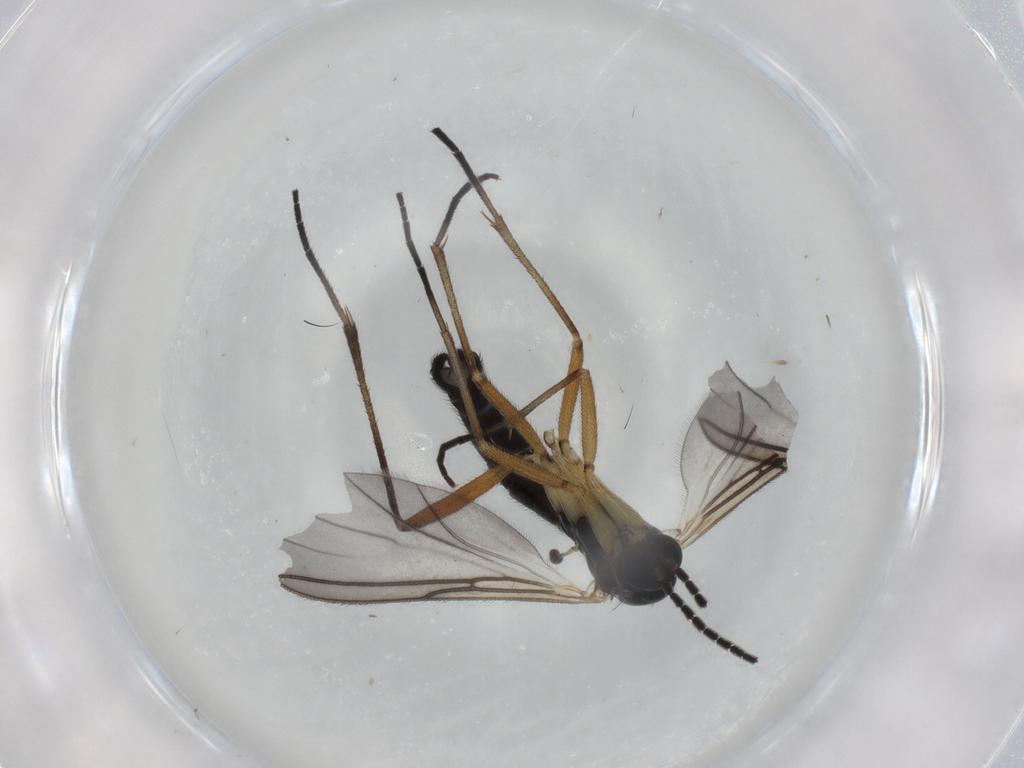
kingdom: Animalia
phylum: Arthropoda
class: Insecta
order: Diptera
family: Sciaridae
